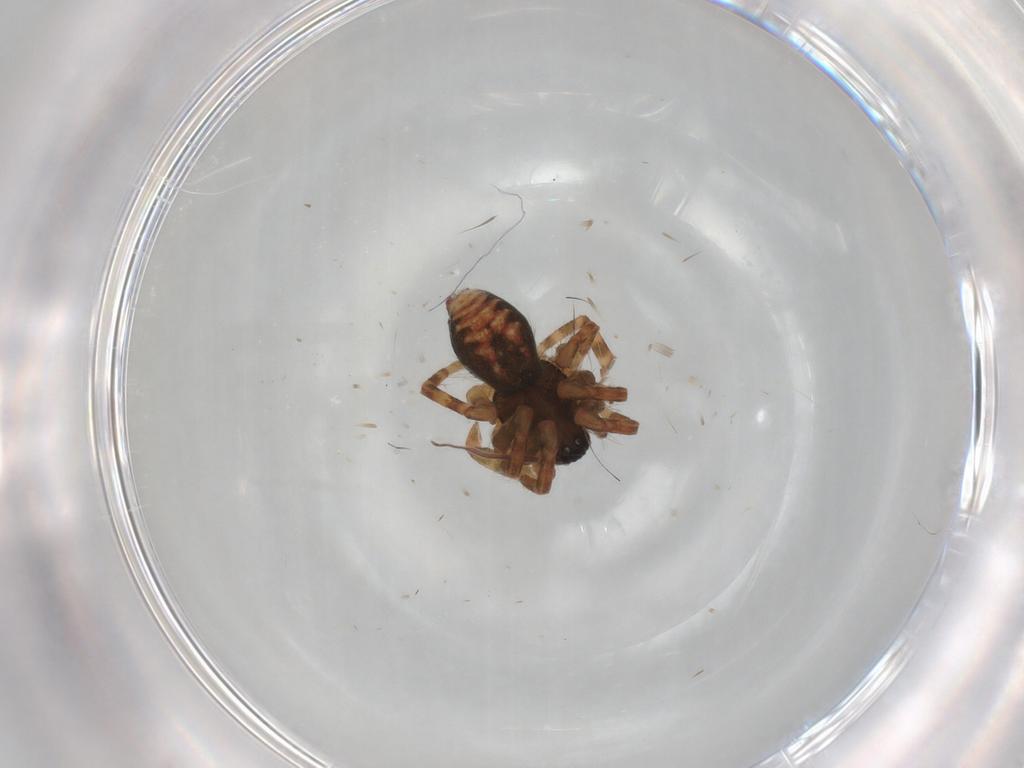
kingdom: Animalia
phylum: Arthropoda
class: Arachnida
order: Araneae
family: Agelenidae
